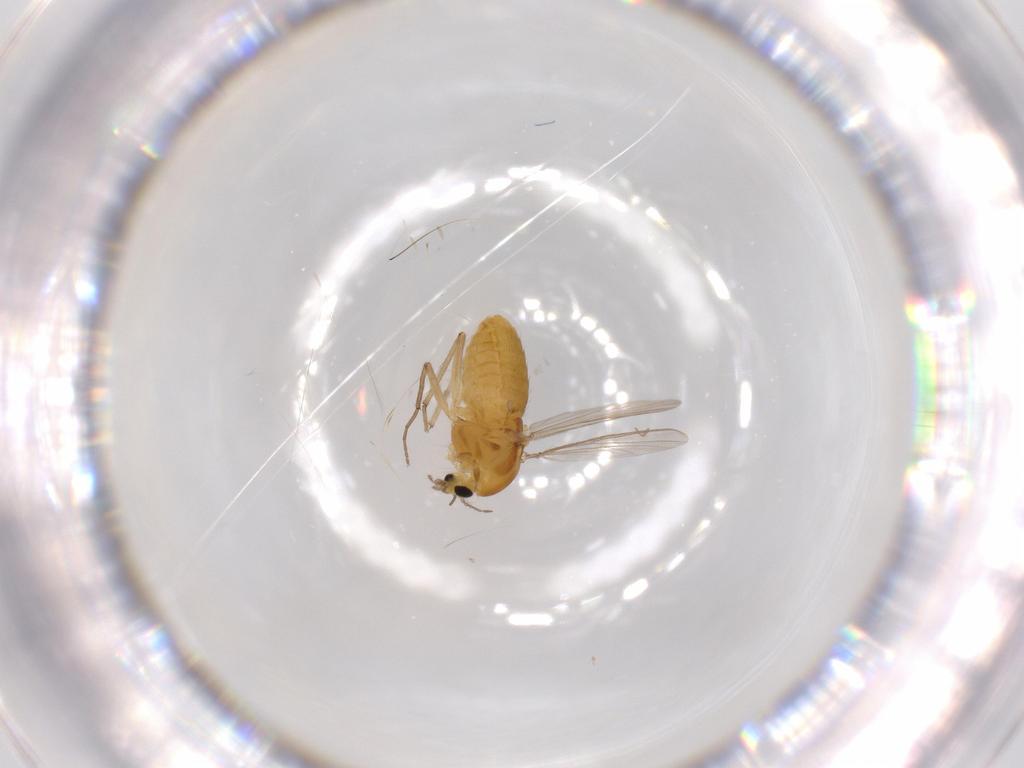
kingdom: Animalia
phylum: Arthropoda
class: Insecta
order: Diptera
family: Chironomidae
